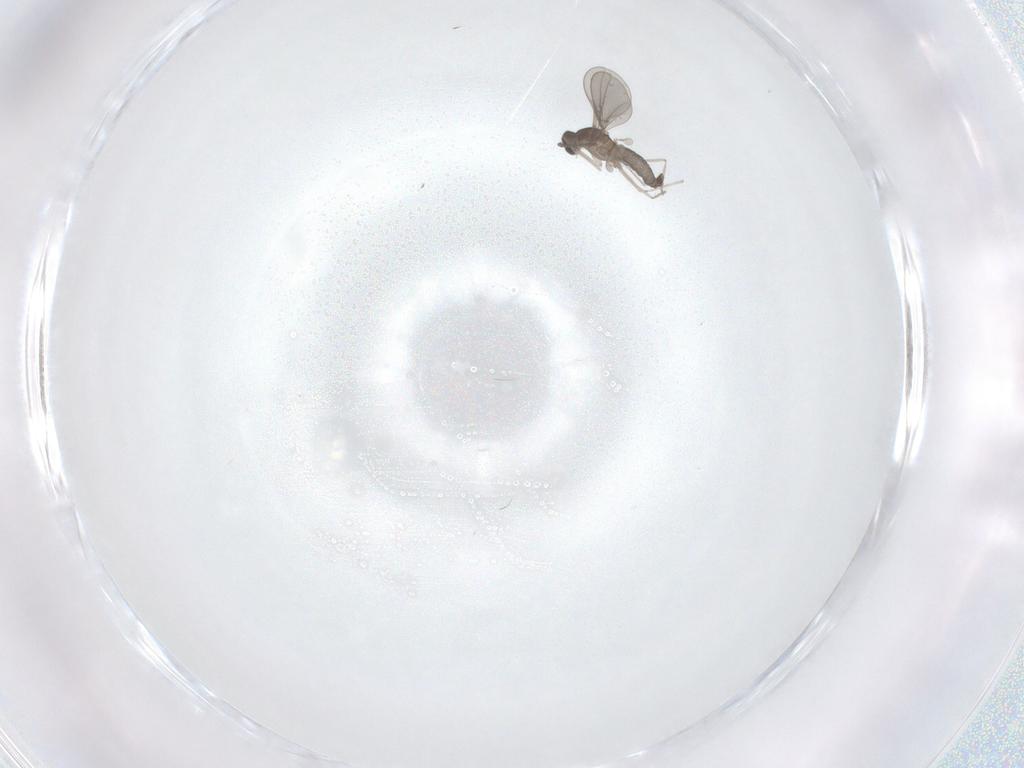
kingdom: Animalia
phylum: Arthropoda
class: Insecta
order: Diptera
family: Cecidomyiidae
